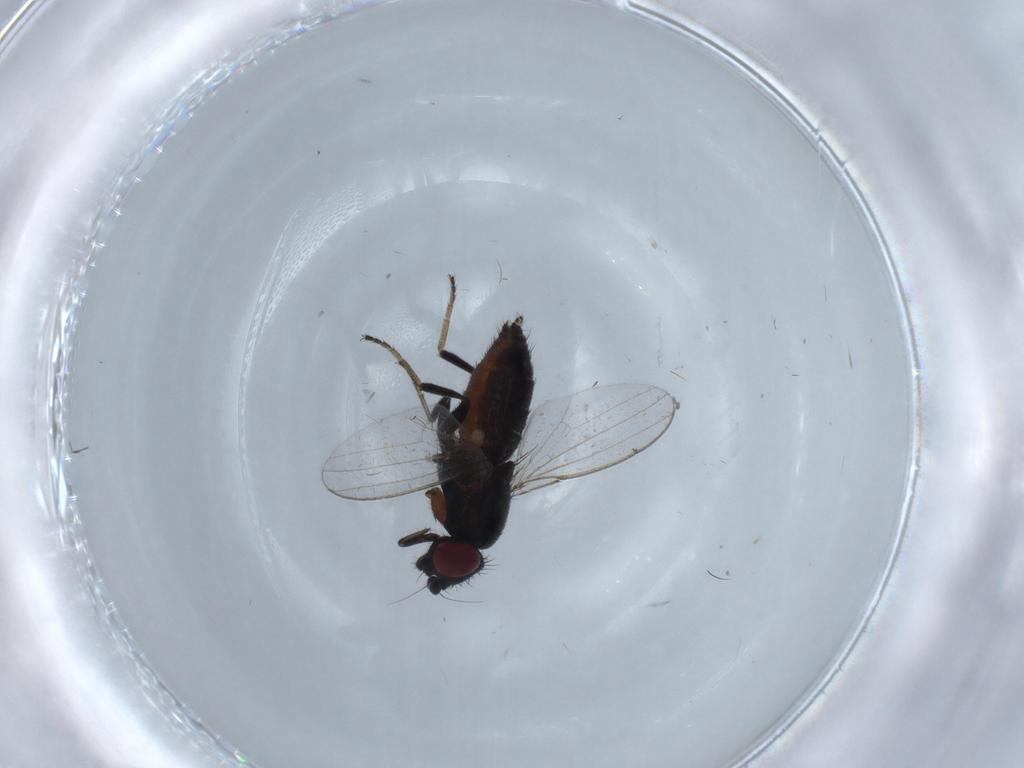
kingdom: Animalia
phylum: Arthropoda
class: Insecta
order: Diptera
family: Milichiidae
